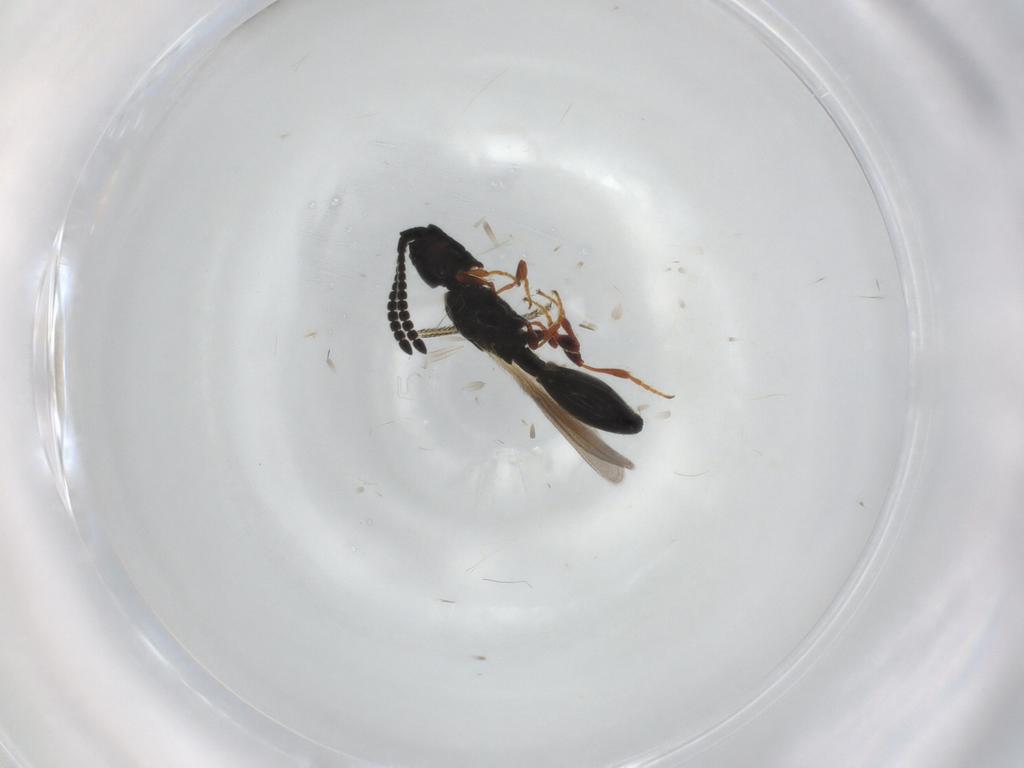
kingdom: Animalia
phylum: Arthropoda
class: Insecta
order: Hymenoptera
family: Diapriidae
